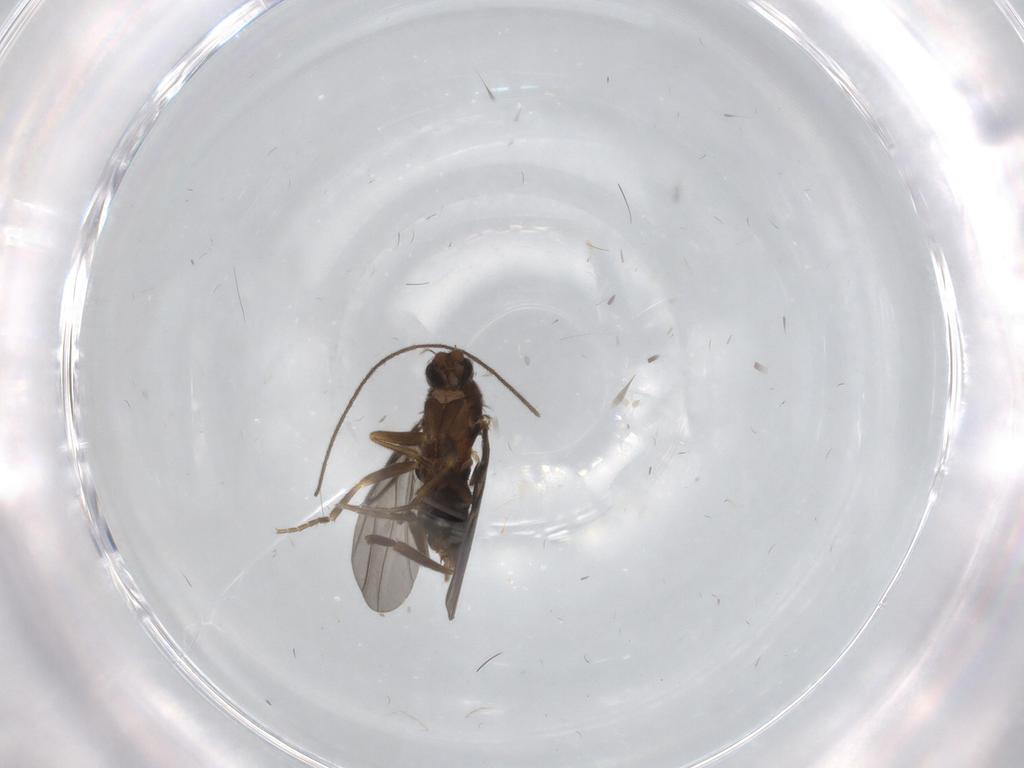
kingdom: Animalia
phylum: Arthropoda
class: Insecta
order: Diptera
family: Phoridae
